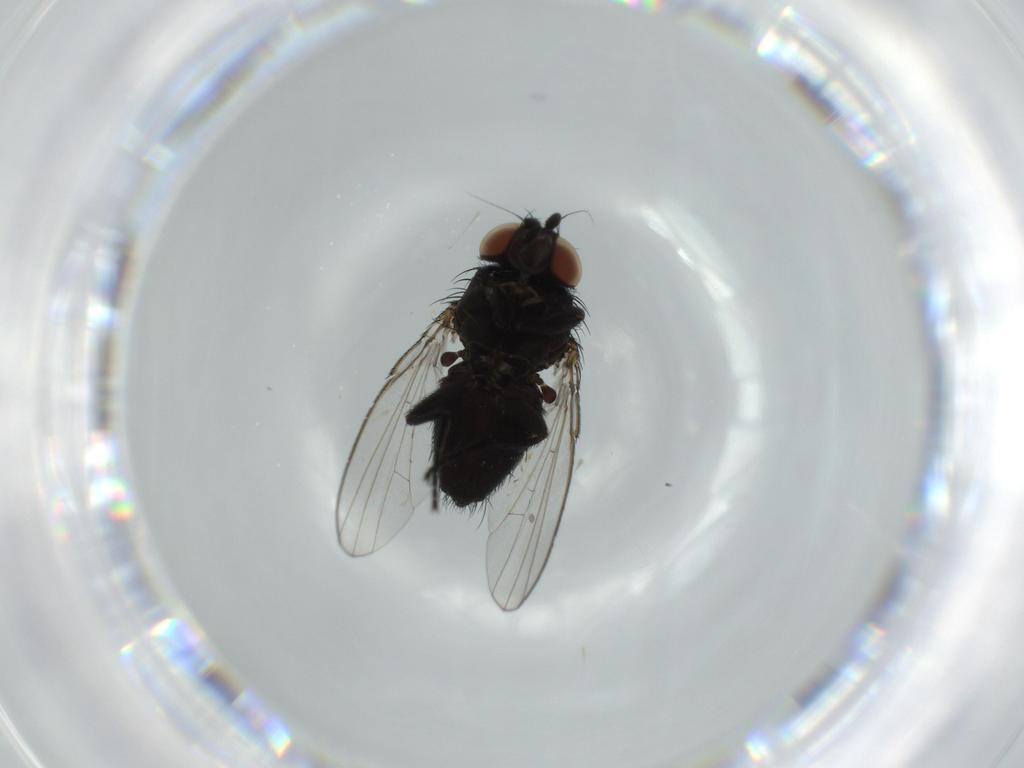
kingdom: Animalia
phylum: Arthropoda
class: Insecta
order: Diptera
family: Milichiidae
